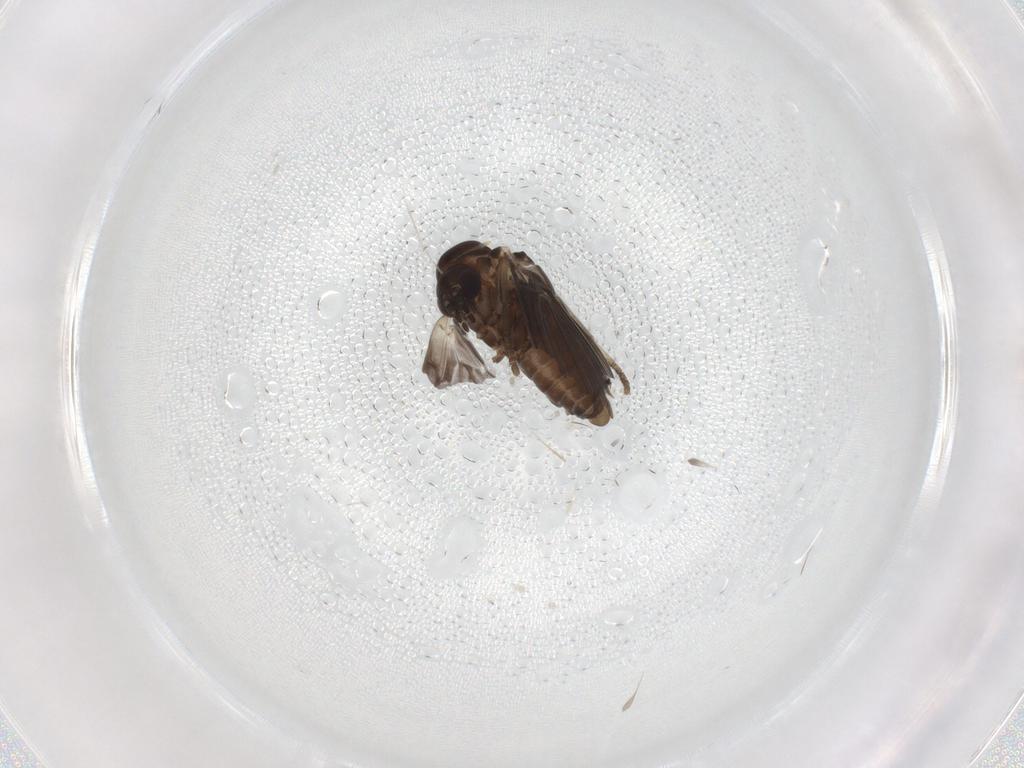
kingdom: Animalia
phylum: Arthropoda
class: Insecta
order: Diptera
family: Psychodidae
